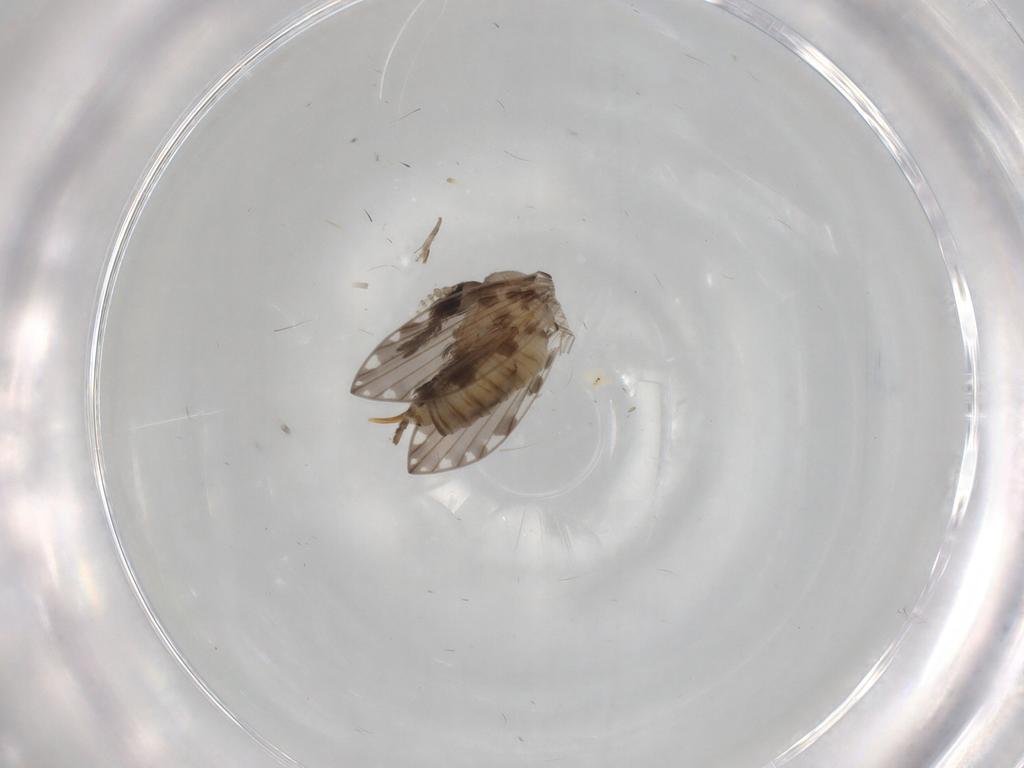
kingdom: Animalia
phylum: Arthropoda
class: Insecta
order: Diptera
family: Psychodidae
